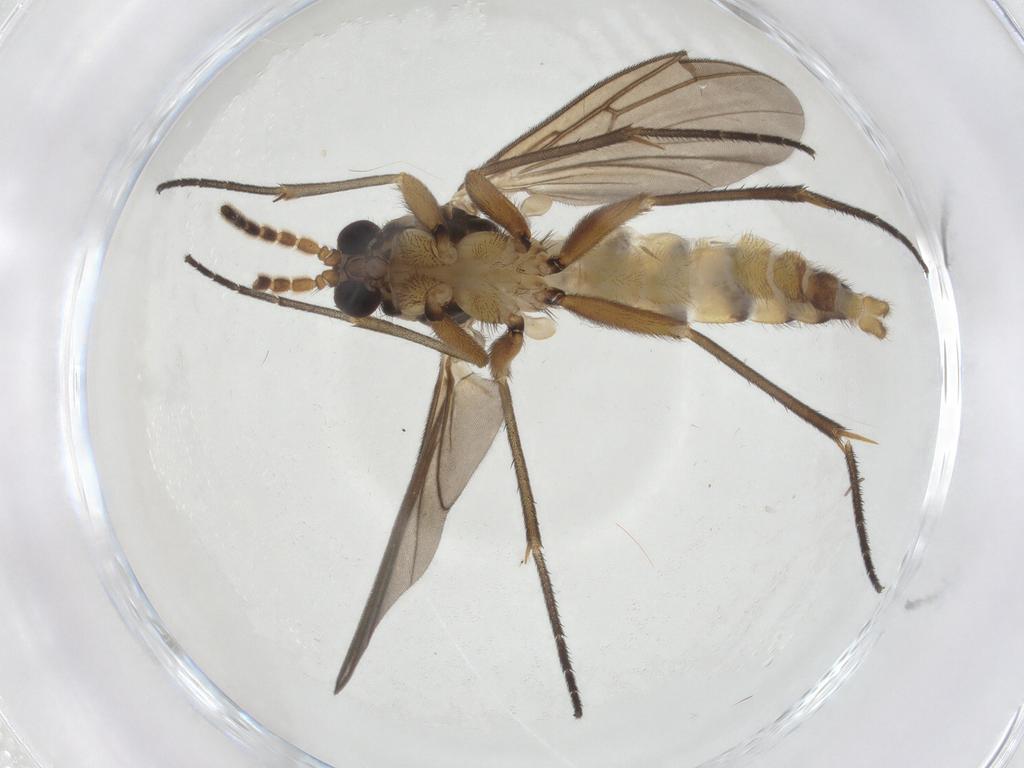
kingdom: Animalia
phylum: Arthropoda
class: Insecta
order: Diptera
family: Mycetophilidae
